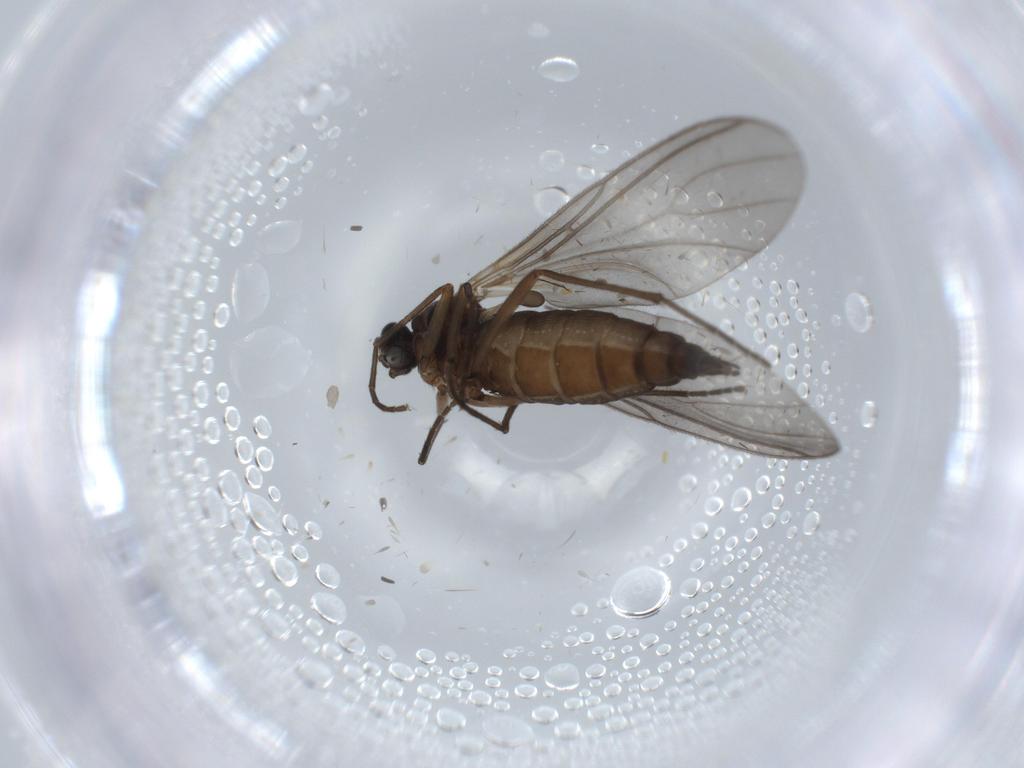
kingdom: Animalia
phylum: Arthropoda
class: Insecta
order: Diptera
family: Sciaridae
